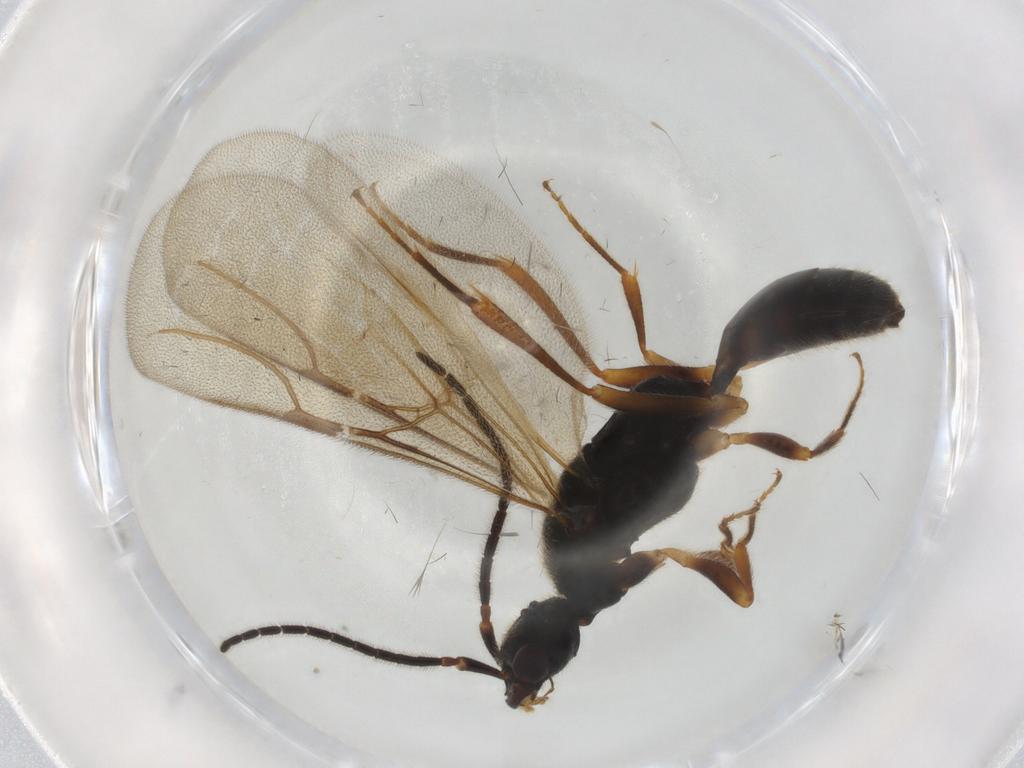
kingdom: Animalia
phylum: Arthropoda
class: Insecta
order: Hymenoptera
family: Bethylidae
